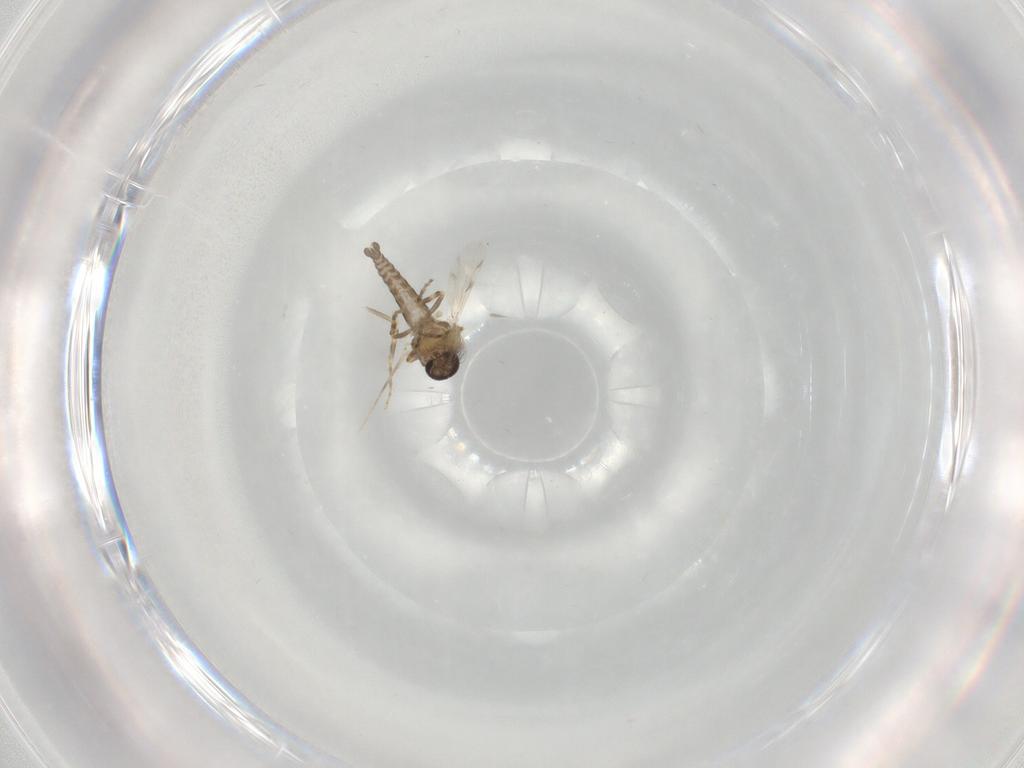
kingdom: Animalia
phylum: Arthropoda
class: Insecta
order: Diptera
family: Ceratopogonidae
